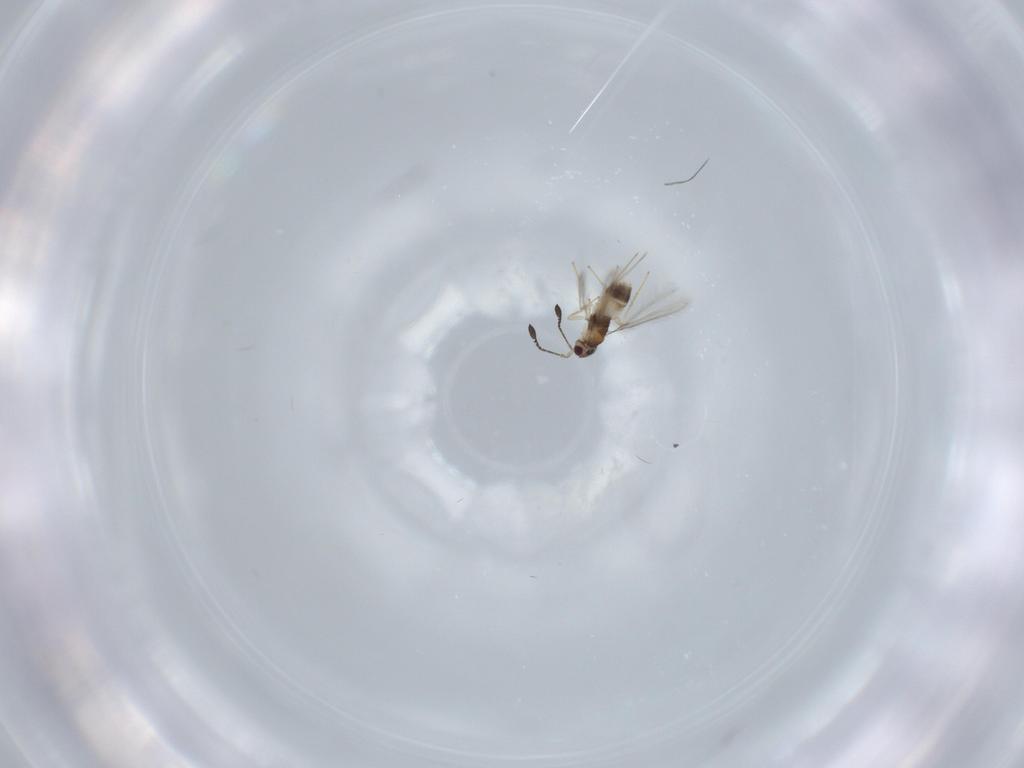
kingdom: Animalia
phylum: Arthropoda
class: Insecta
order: Hymenoptera
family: Mymaridae
